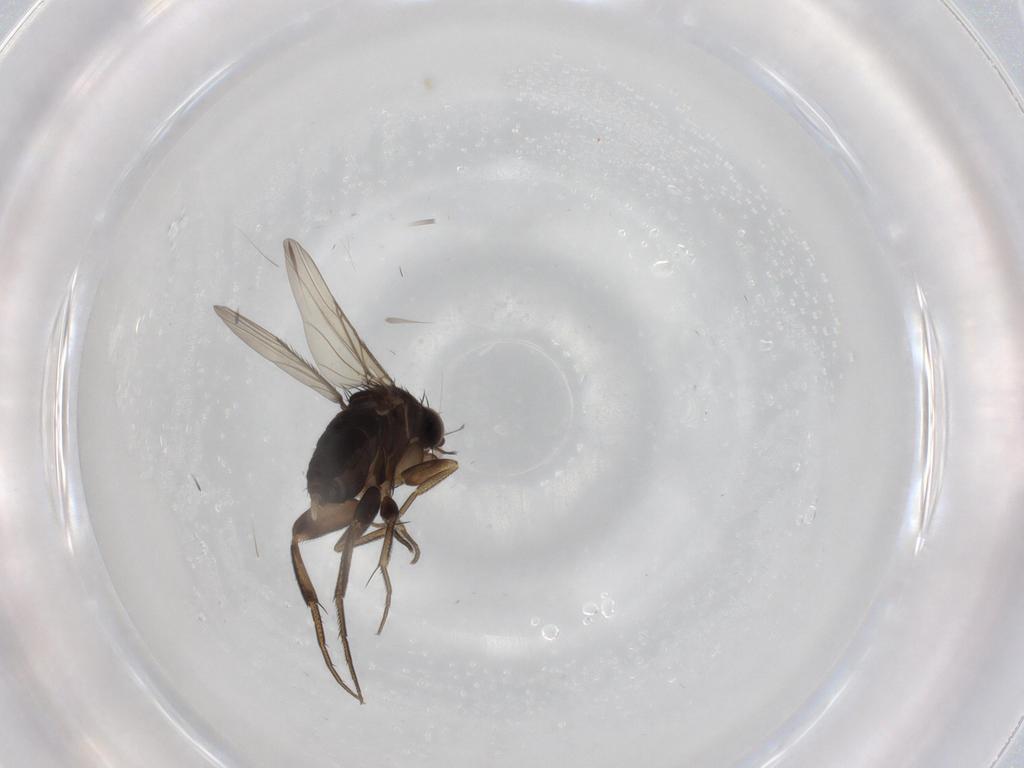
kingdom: Animalia
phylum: Arthropoda
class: Insecta
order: Diptera
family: Phoridae
